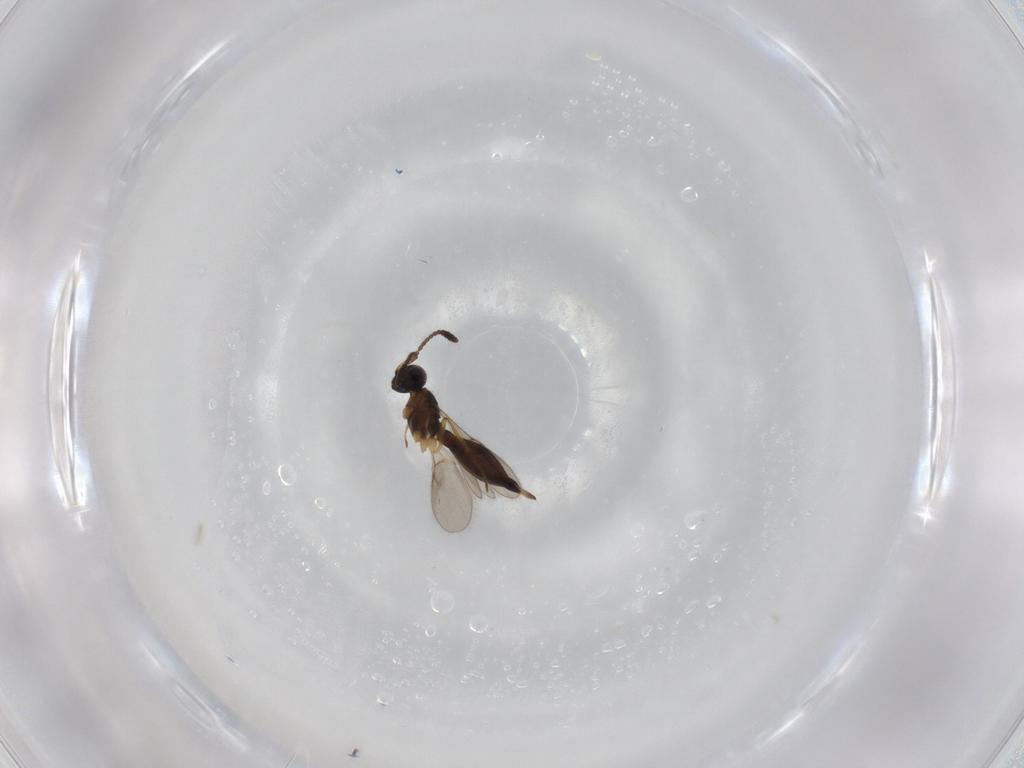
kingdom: Animalia
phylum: Arthropoda
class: Insecta
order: Hymenoptera
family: Scelionidae
